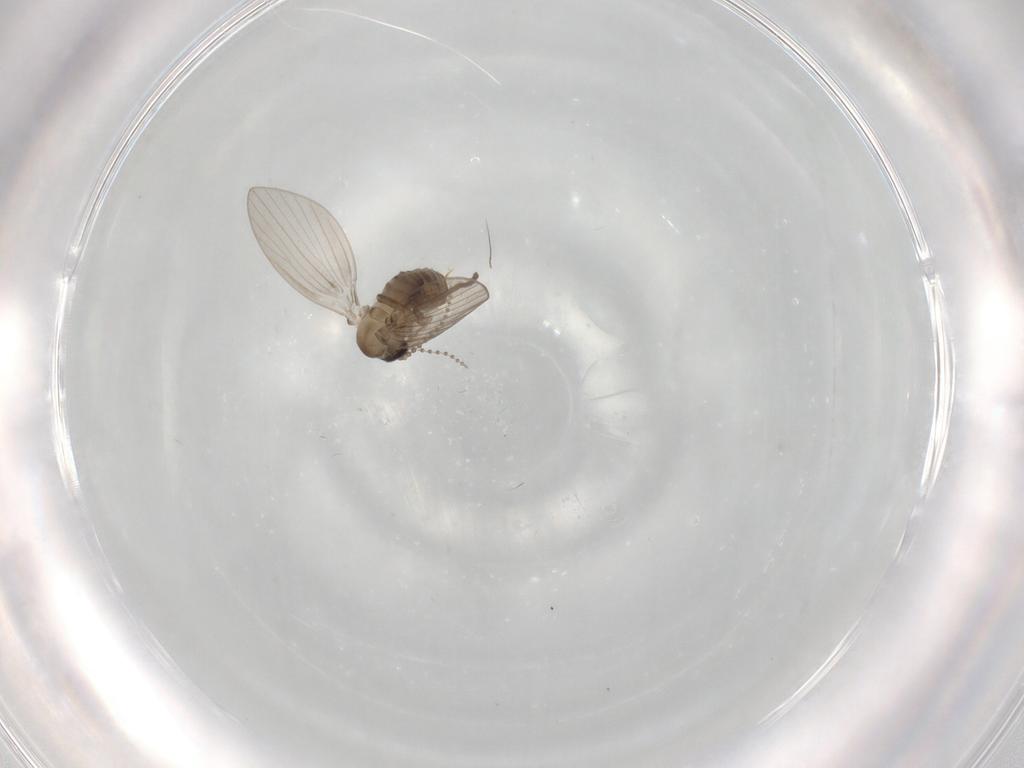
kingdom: Animalia
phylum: Arthropoda
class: Insecta
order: Diptera
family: Psychodidae
